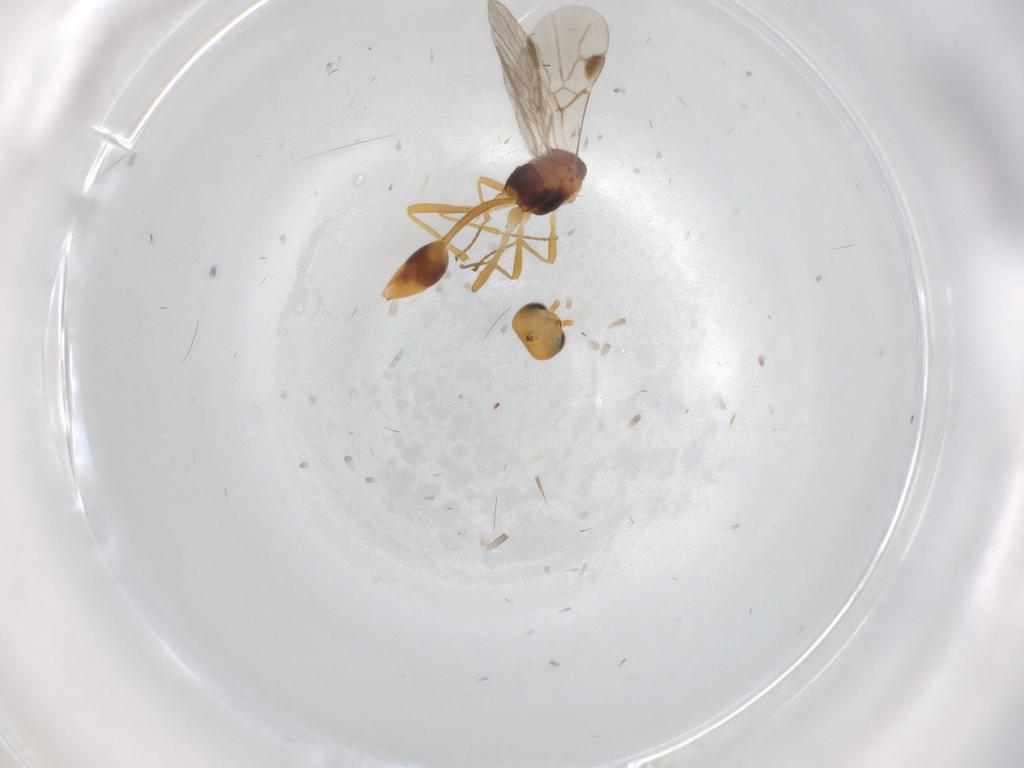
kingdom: Animalia
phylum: Arthropoda
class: Insecta
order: Hymenoptera
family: Braconidae
